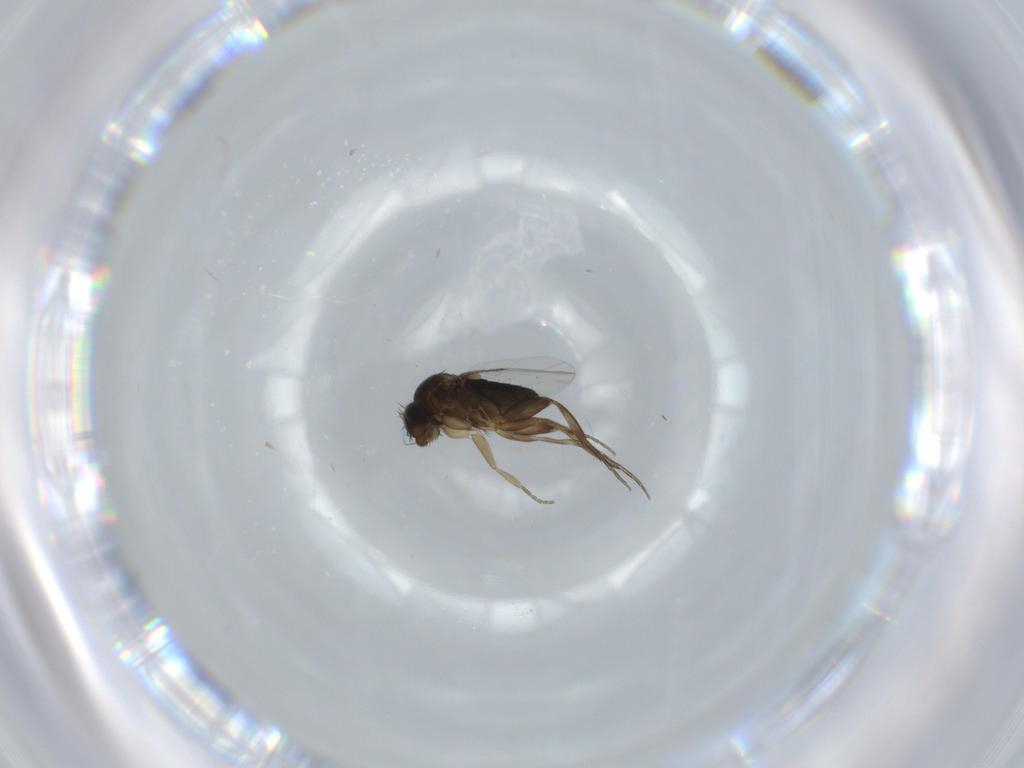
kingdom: Animalia
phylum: Arthropoda
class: Insecta
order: Diptera
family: Phoridae
